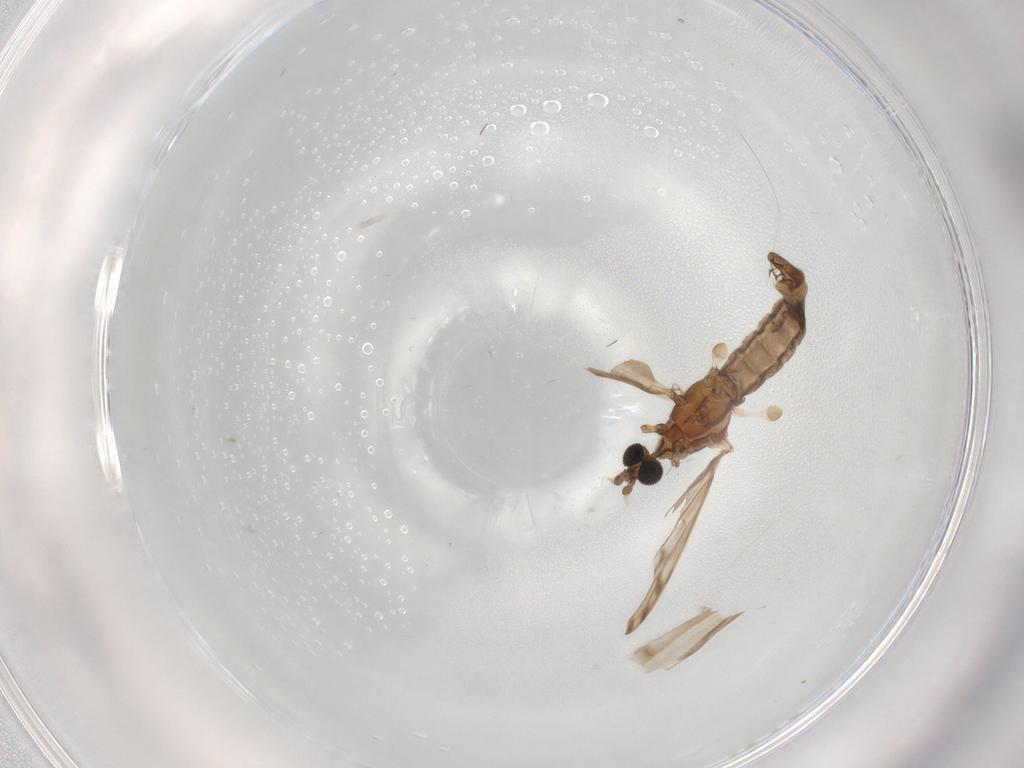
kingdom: Animalia
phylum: Arthropoda
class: Insecta
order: Diptera
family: Limoniidae
